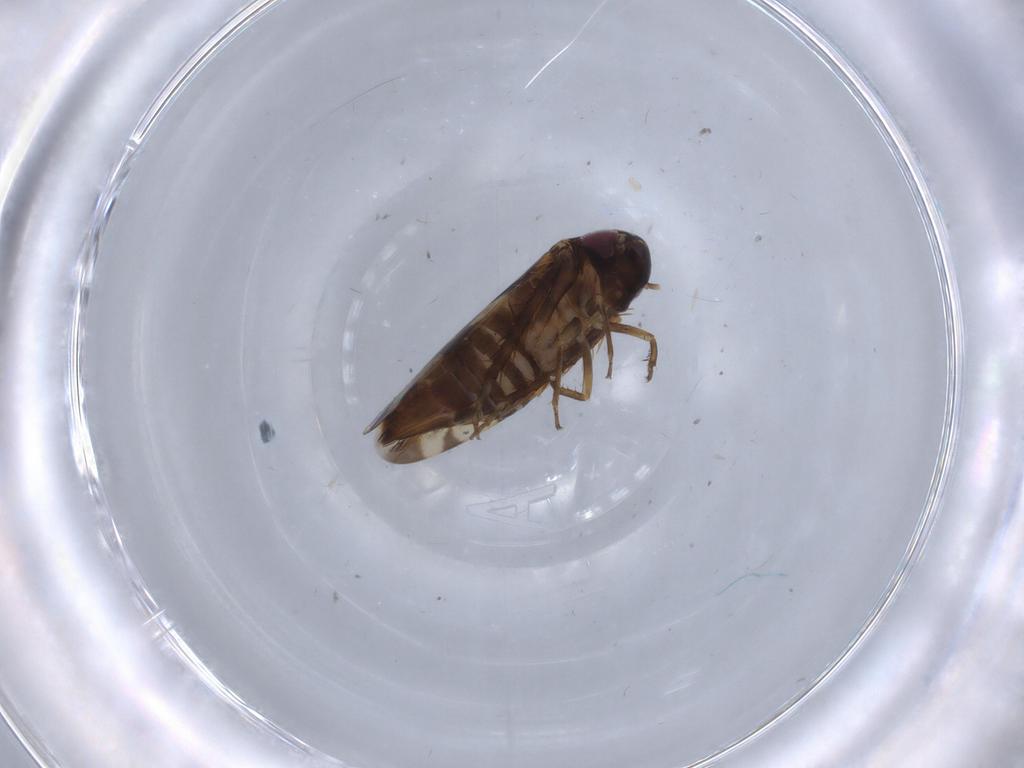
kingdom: Animalia
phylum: Arthropoda
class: Insecta
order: Hemiptera
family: Cicadellidae
